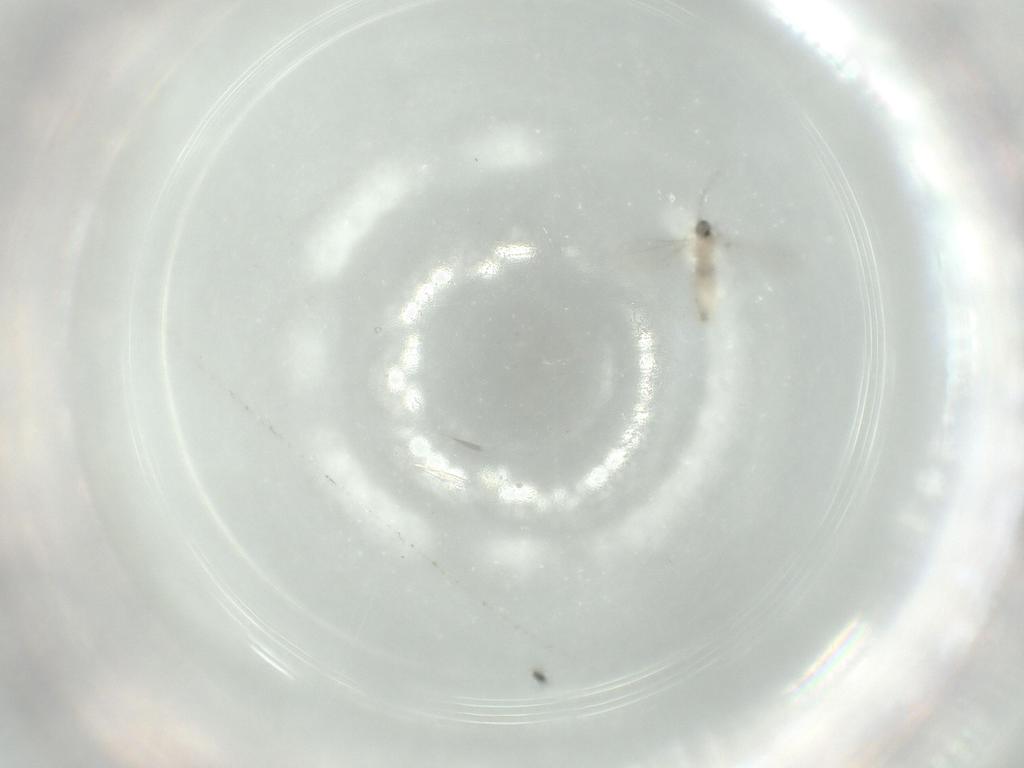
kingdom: Animalia
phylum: Arthropoda
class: Insecta
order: Diptera
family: Cecidomyiidae
